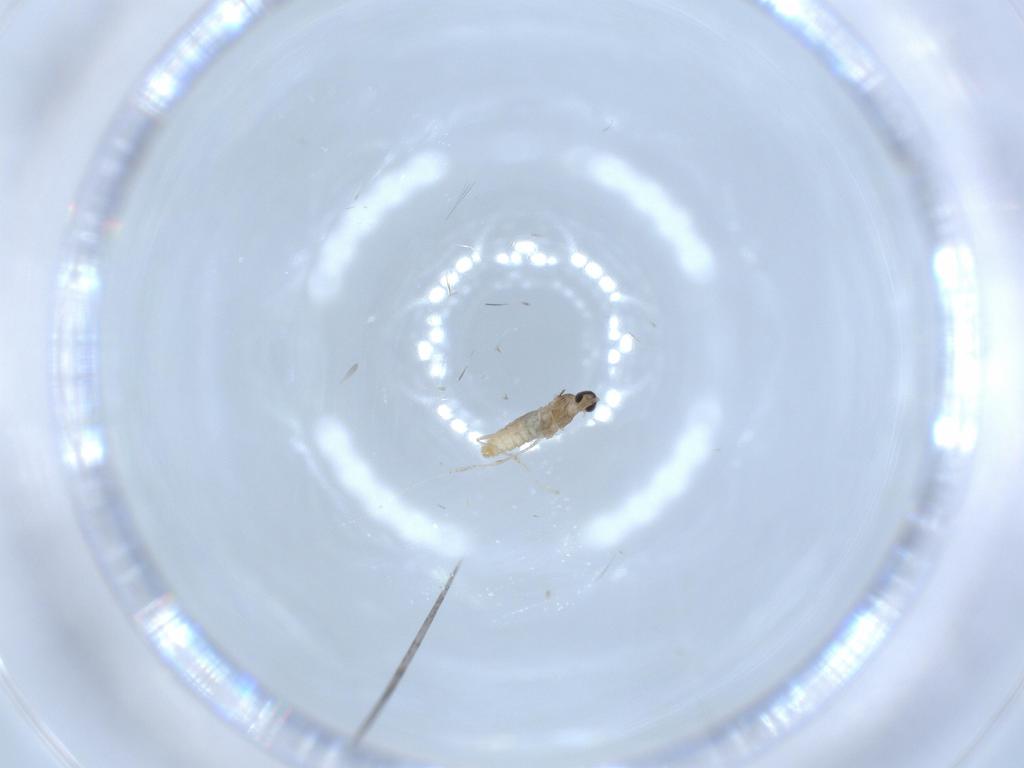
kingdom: Animalia
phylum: Arthropoda
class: Insecta
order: Diptera
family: Cecidomyiidae
